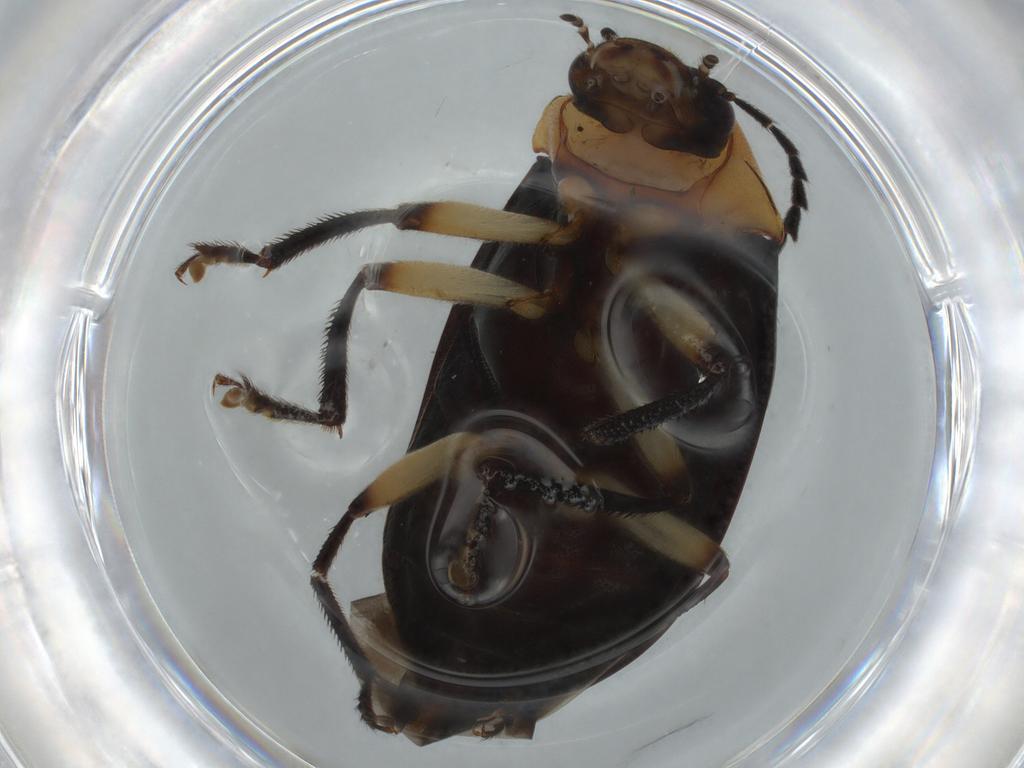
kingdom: Animalia
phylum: Arthropoda
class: Insecta
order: Coleoptera
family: Ptilodactylidae
